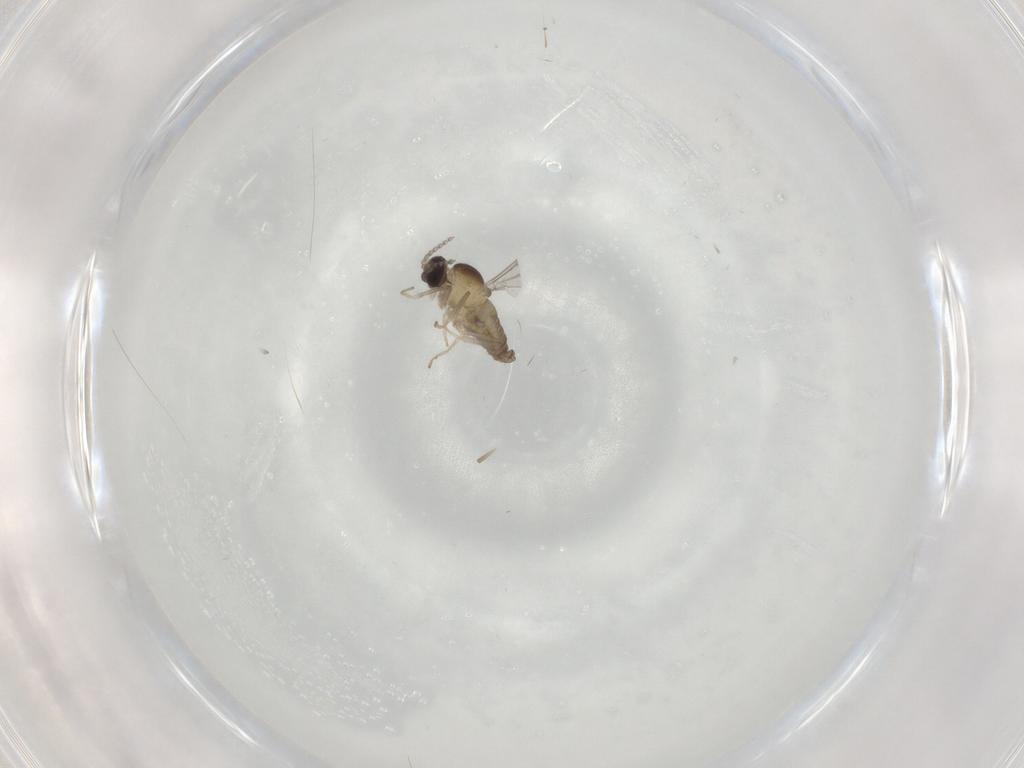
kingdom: Animalia
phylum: Arthropoda
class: Insecta
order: Diptera
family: Cecidomyiidae
